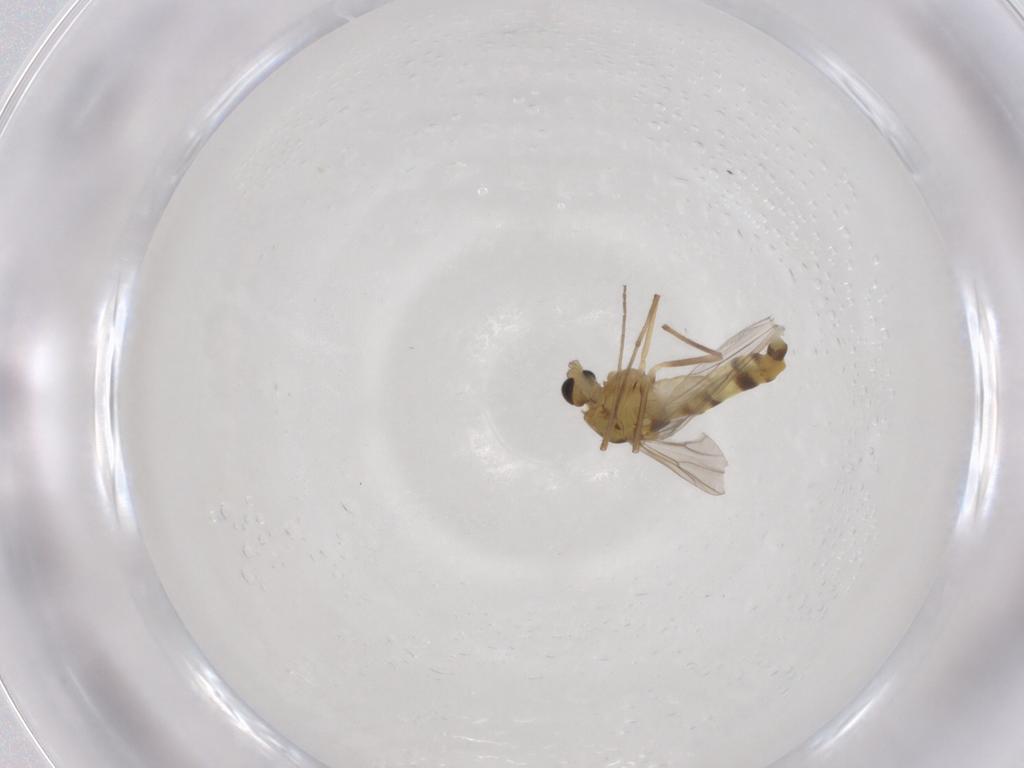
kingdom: Animalia
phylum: Arthropoda
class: Insecta
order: Diptera
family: Chironomidae
